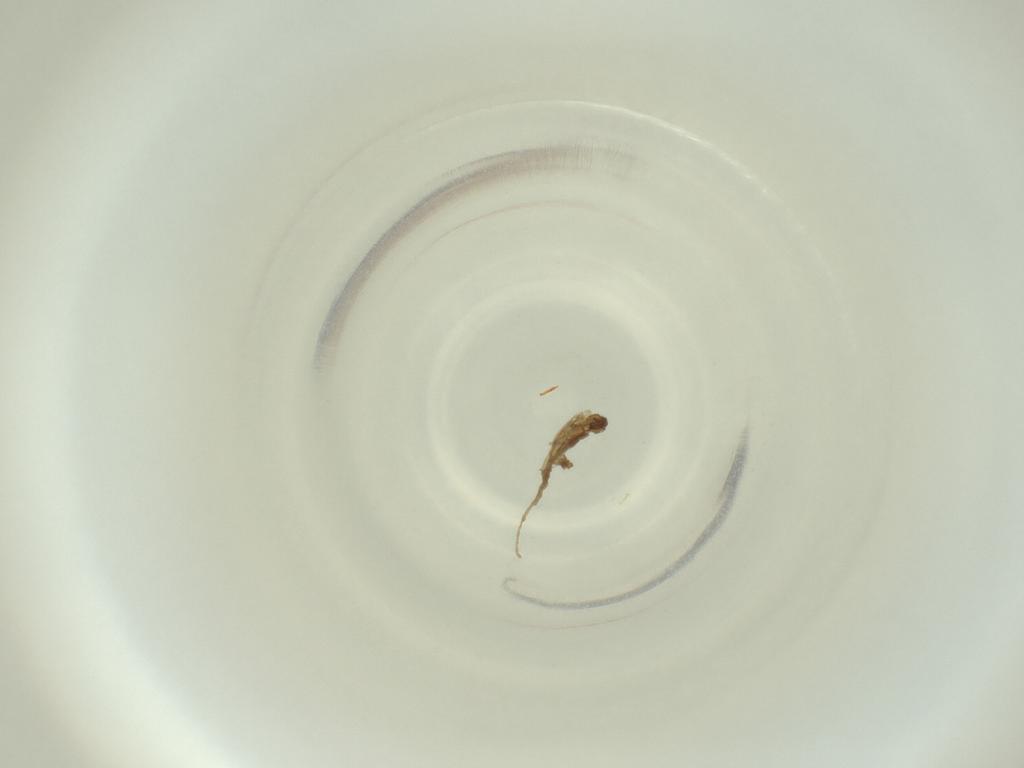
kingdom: Animalia
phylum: Arthropoda
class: Insecta
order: Diptera
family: Cecidomyiidae
